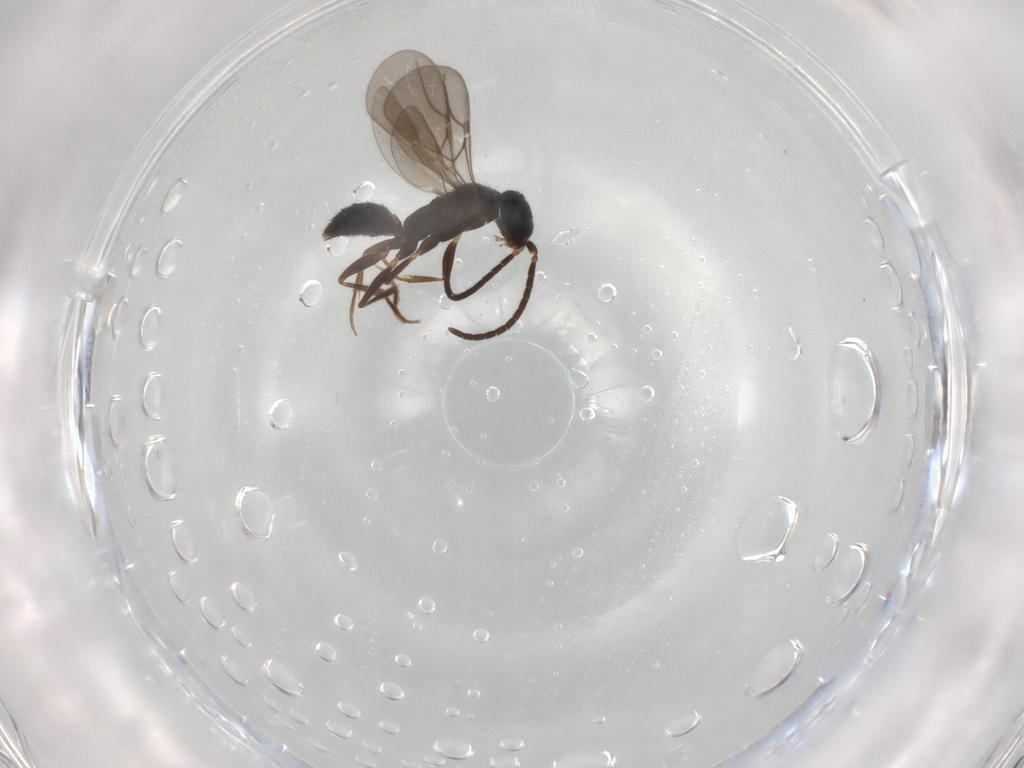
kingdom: Animalia
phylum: Arthropoda
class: Insecta
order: Hymenoptera
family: Bethylidae
